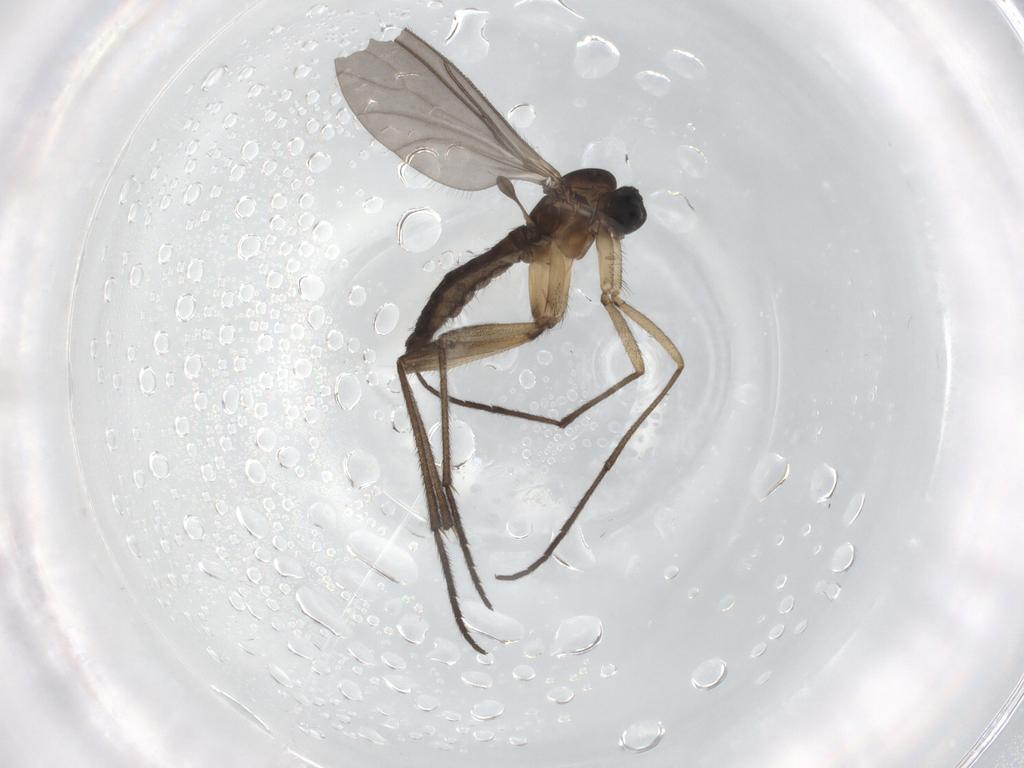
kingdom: Animalia
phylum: Arthropoda
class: Insecta
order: Diptera
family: Sciaridae
